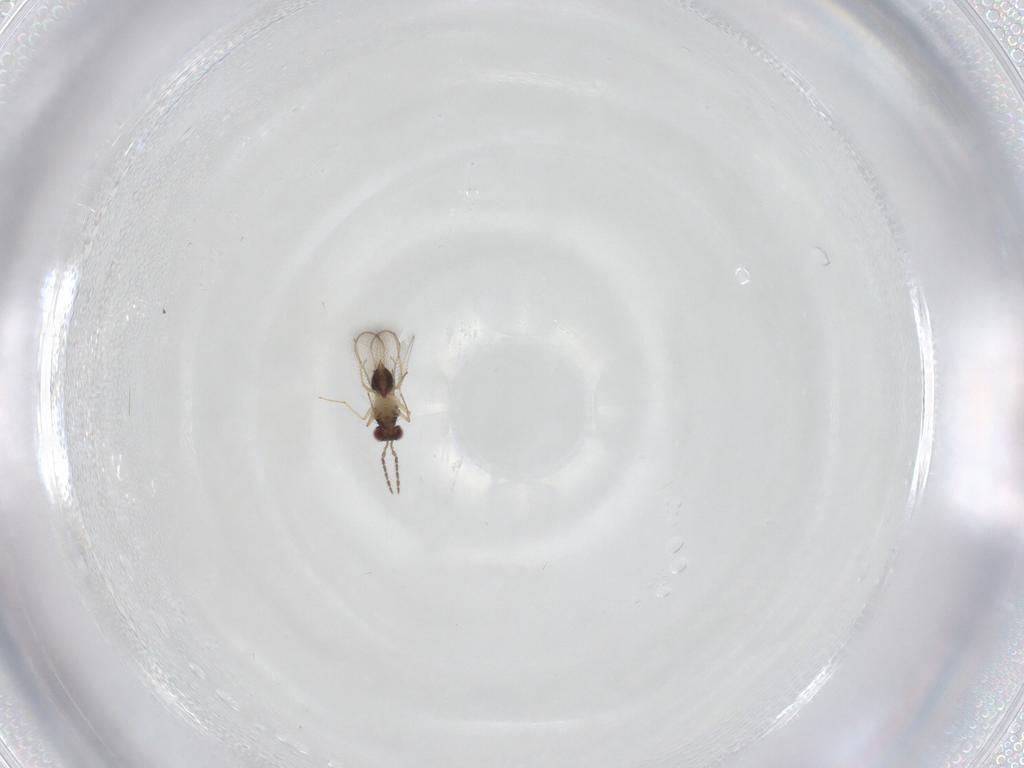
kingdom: Animalia
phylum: Arthropoda
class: Insecta
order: Hymenoptera
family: Eulophidae
